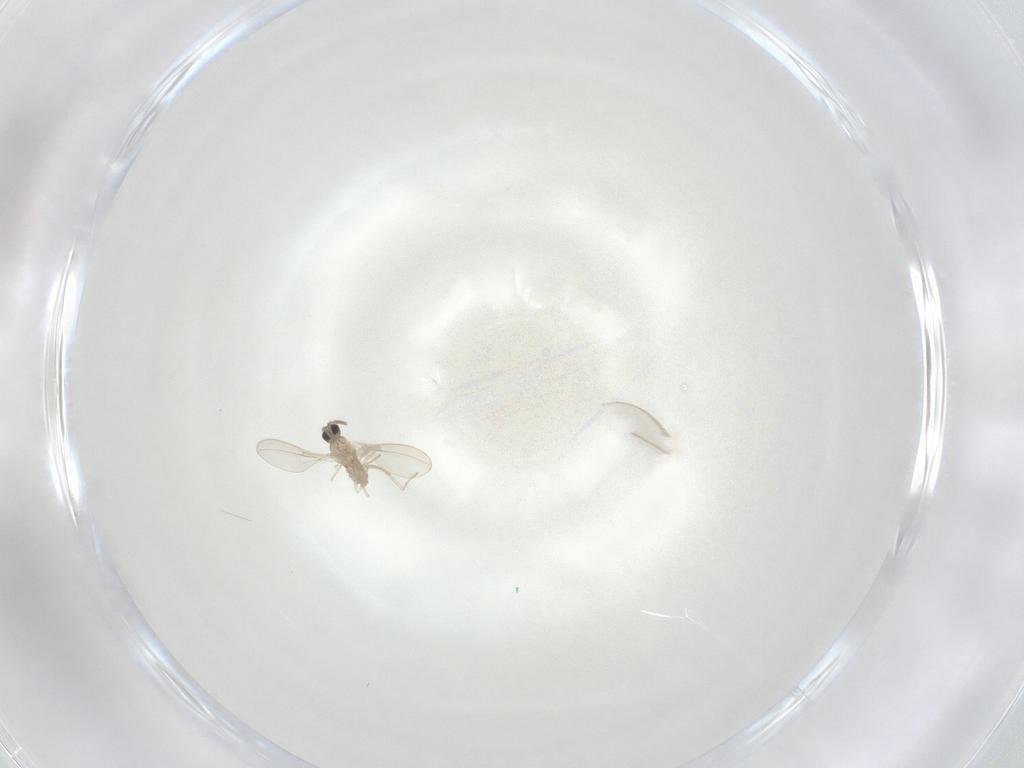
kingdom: Animalia
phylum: Arthropoda
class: Insecta
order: Diptera
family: Cecidomyiidae
